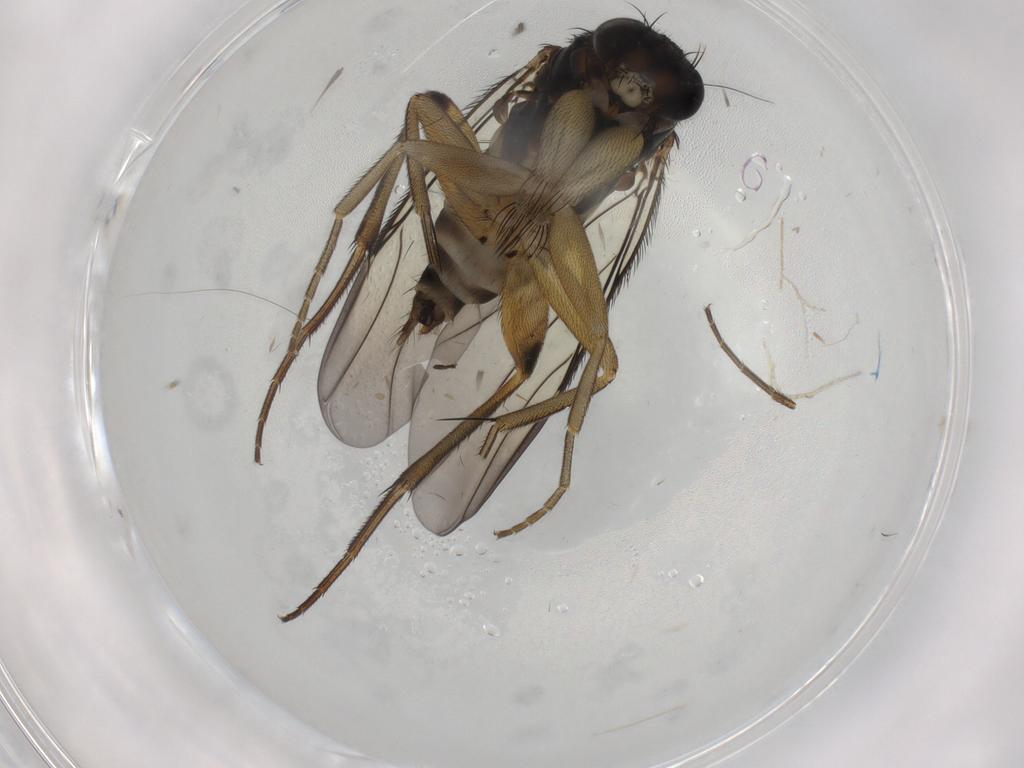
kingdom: Animalia
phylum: Arthropoda
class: Insecta
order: Diptera
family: Phoridae
